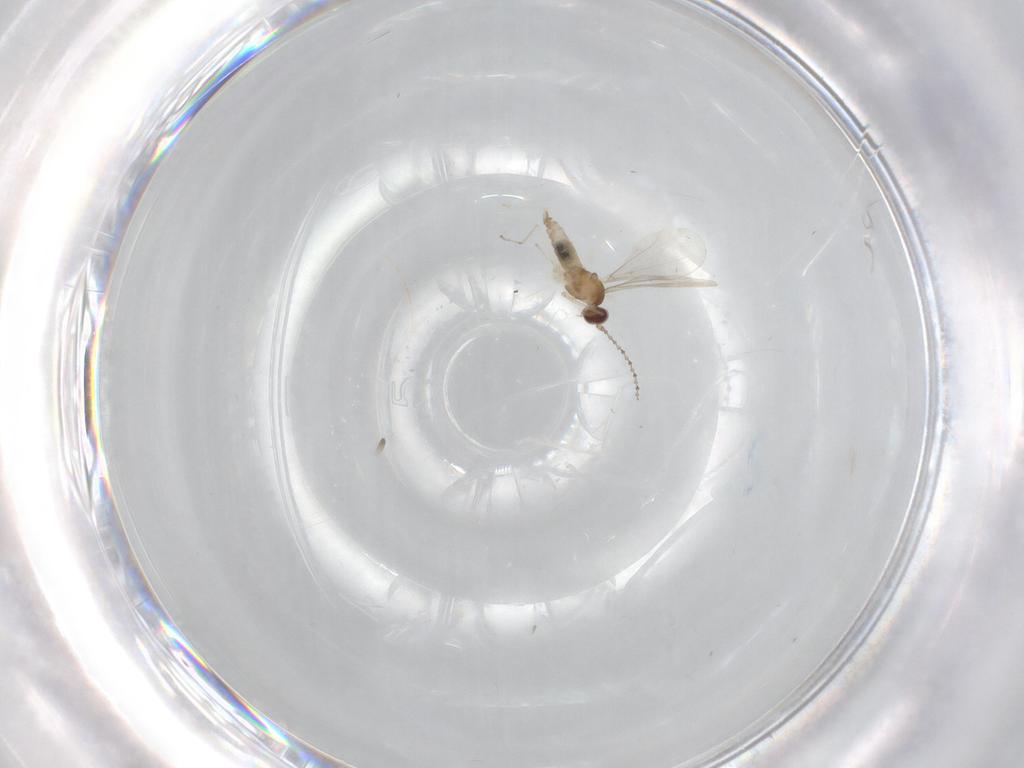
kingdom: Animalia
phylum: Arthropoda
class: Insecta
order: Diptera
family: Cecidomyiidae
